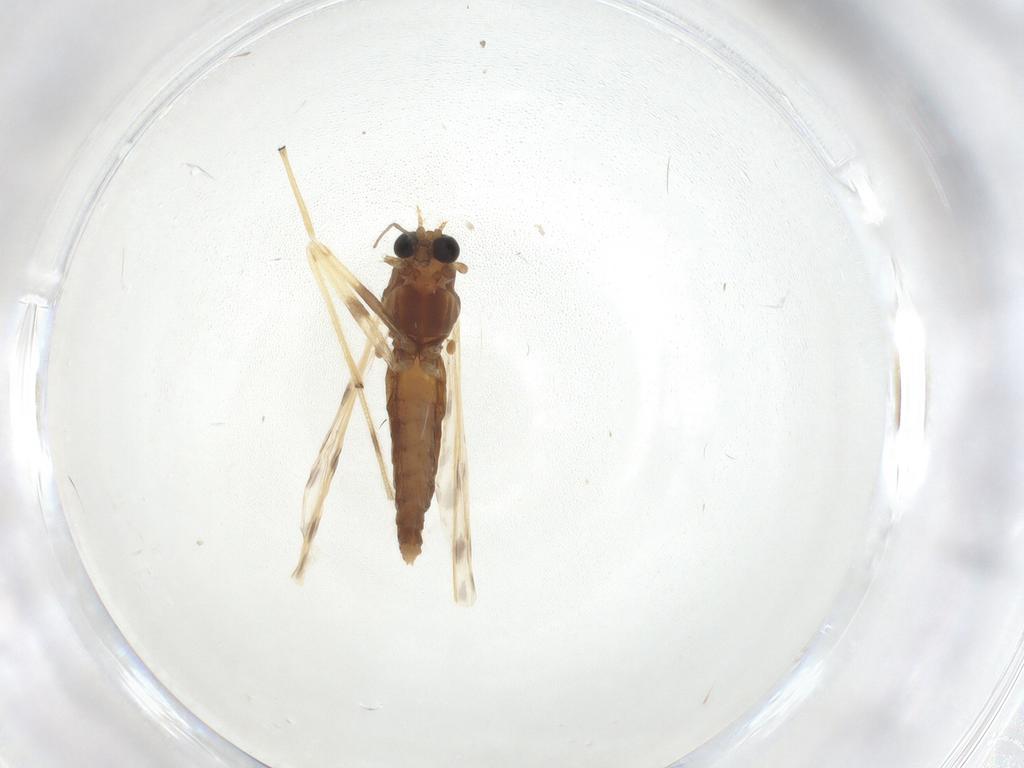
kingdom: Animalia
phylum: Arthropoda
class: Insecta
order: Diptera
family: Chironomidae
